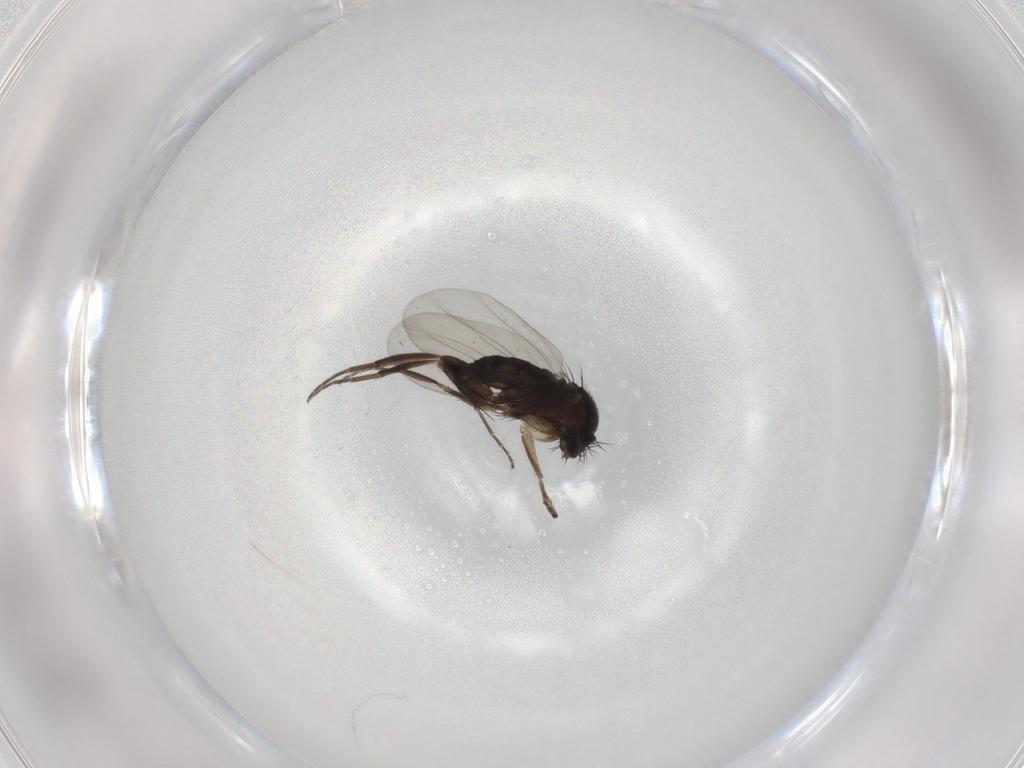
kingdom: Animalia
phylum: Arthropoda
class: Insecta
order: Diptera
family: Phoridae
